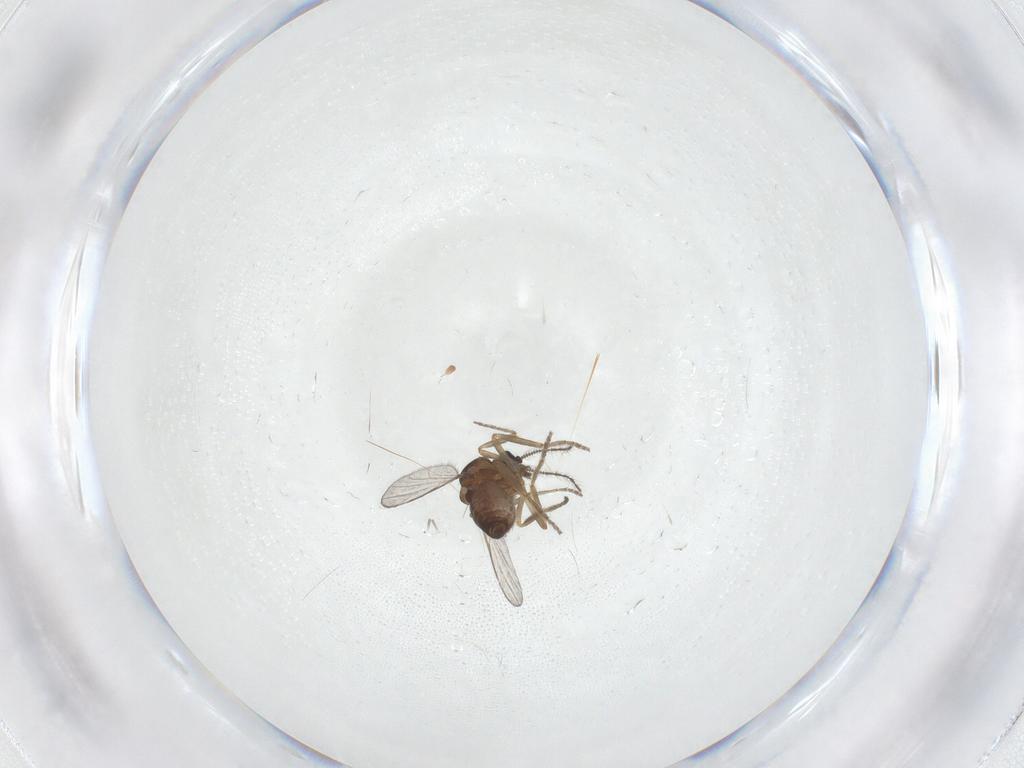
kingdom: Animalia
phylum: Arthropoda
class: Insecta
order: Diptera
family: Ceratopogonidae
